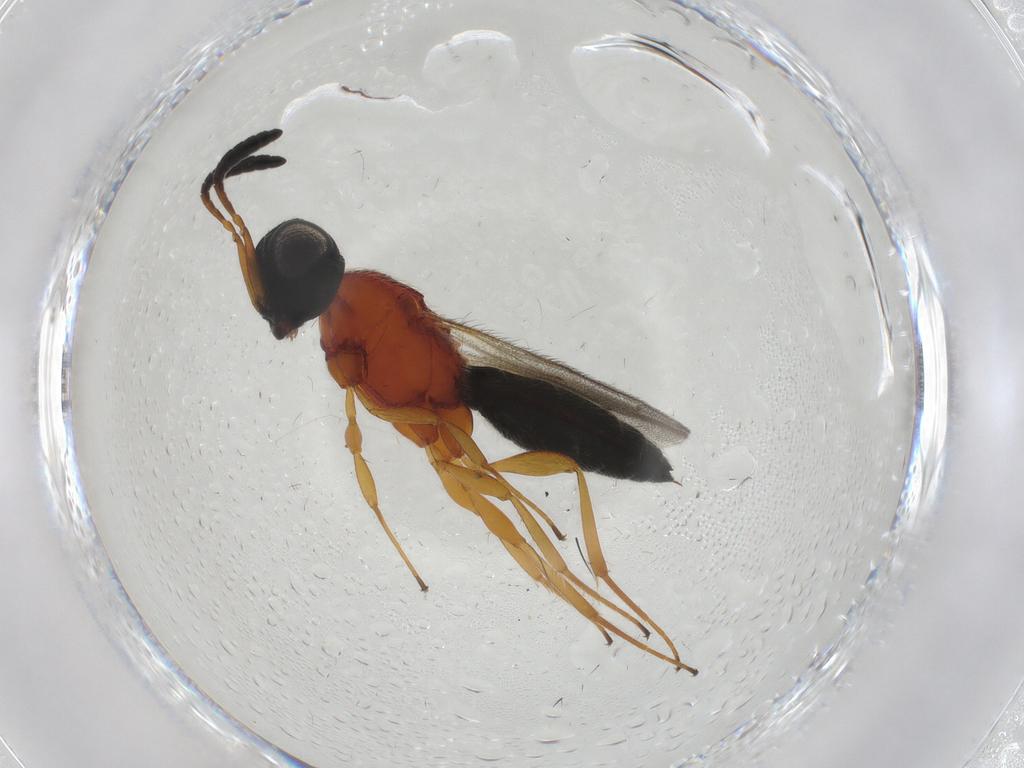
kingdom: Animalia
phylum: Arthropoda
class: Insecta
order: Hymenoptera
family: Scelionidae
